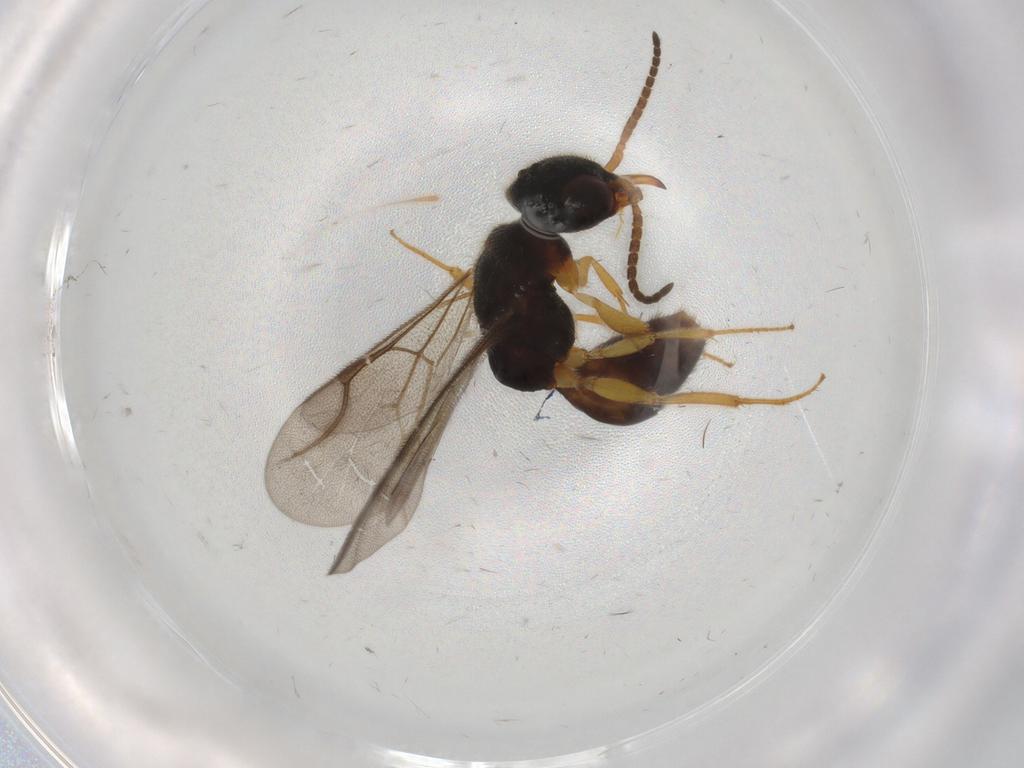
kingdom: Animalia
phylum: Arthropoda
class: Insecta
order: Hymenoptera
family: Bethylidae
